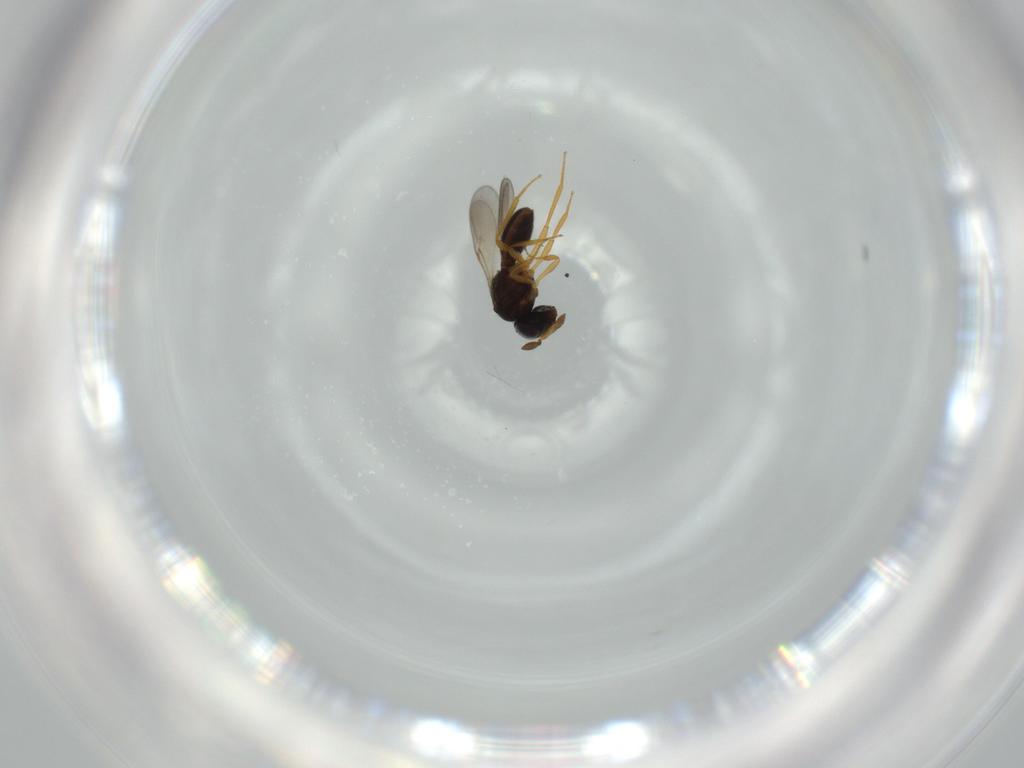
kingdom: Animalia
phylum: Arthropoda
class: Insecta
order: Hymenoptera
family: Scelionidae
